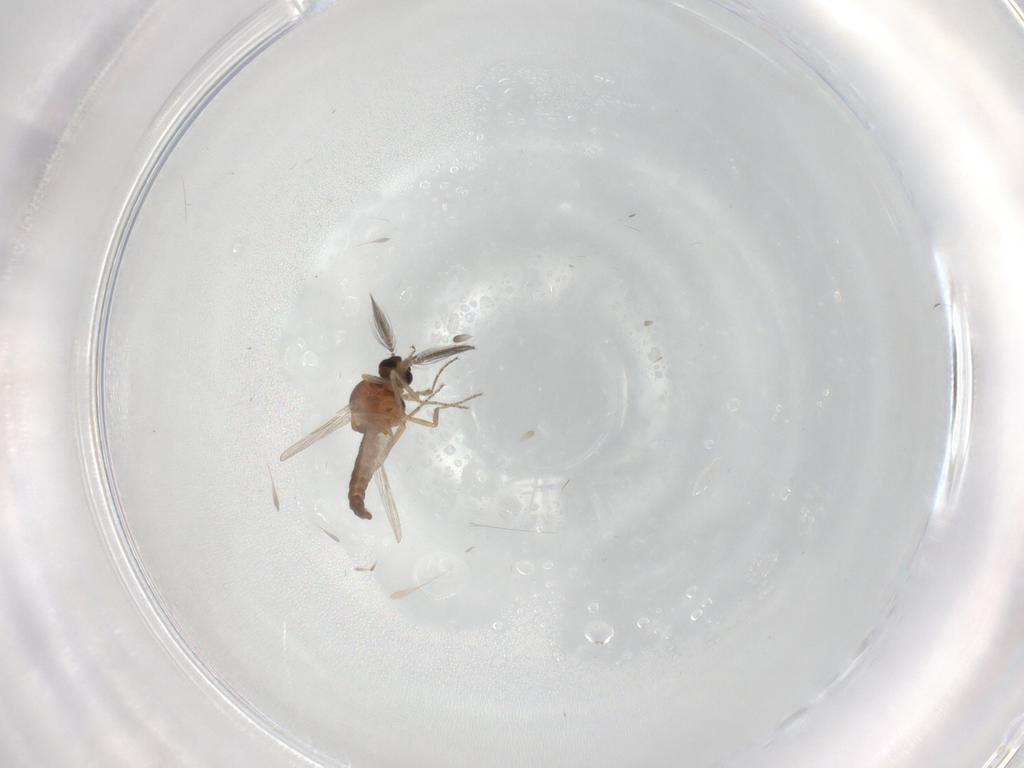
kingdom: Animalia
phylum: Arthropoda
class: Insecta
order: Diptera
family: Ceratopogonidae
